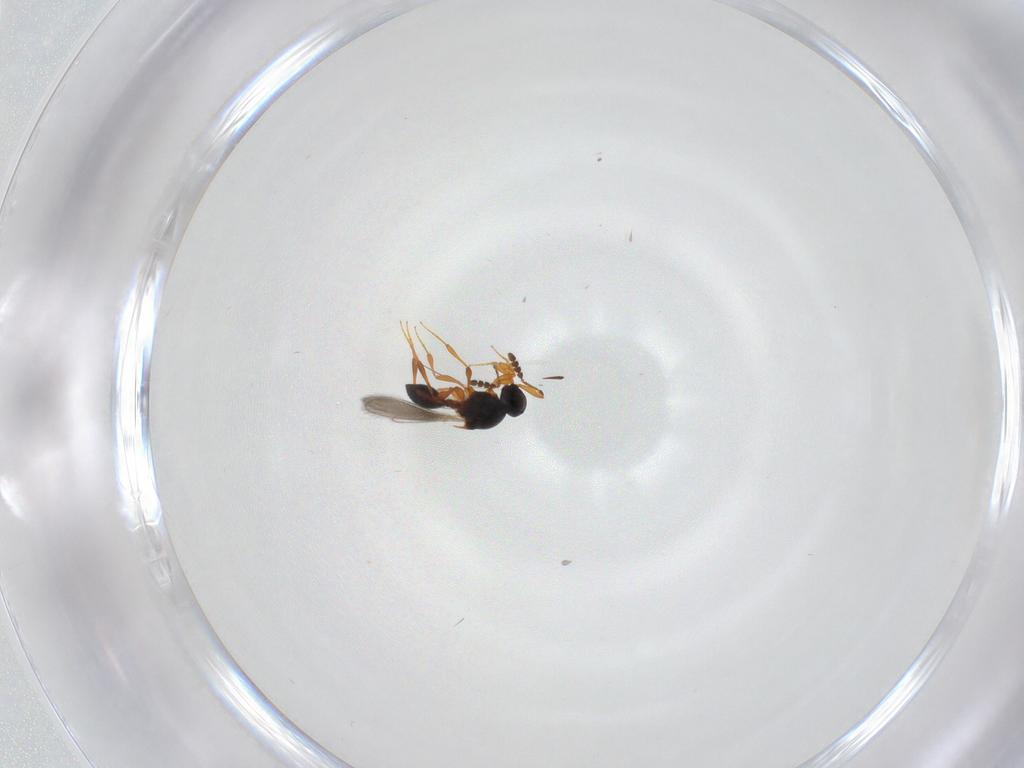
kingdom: Animalia
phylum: Arthropoda
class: Insecta
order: Hymenoptera
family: Platygastridae
